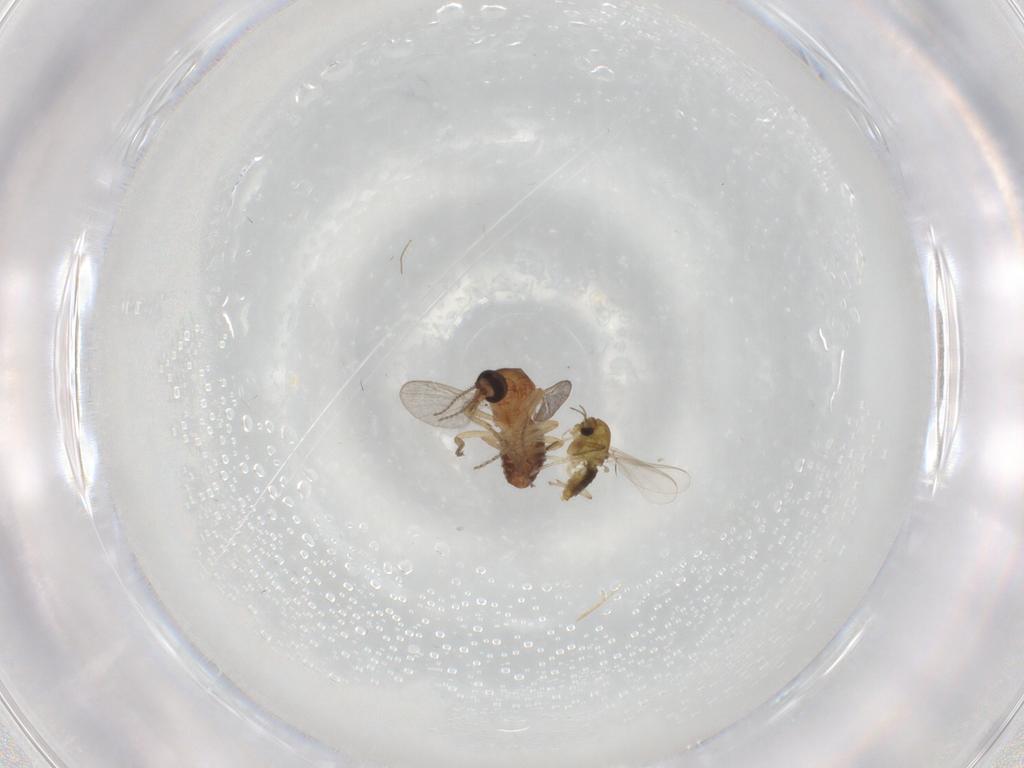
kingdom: Animalia
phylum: Arthropoda
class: Insecta
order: Diptera
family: Ceratopogonidae
